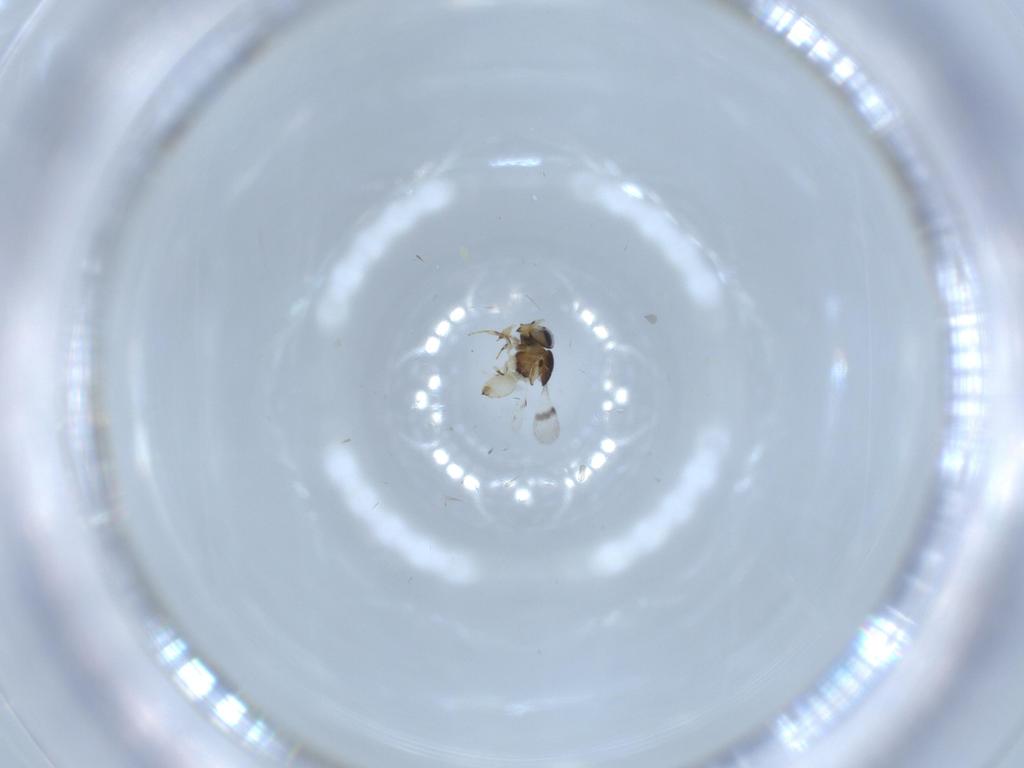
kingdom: Animalia
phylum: Arthropoda
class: Insecta
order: Hymenoptera
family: Scelionidae
